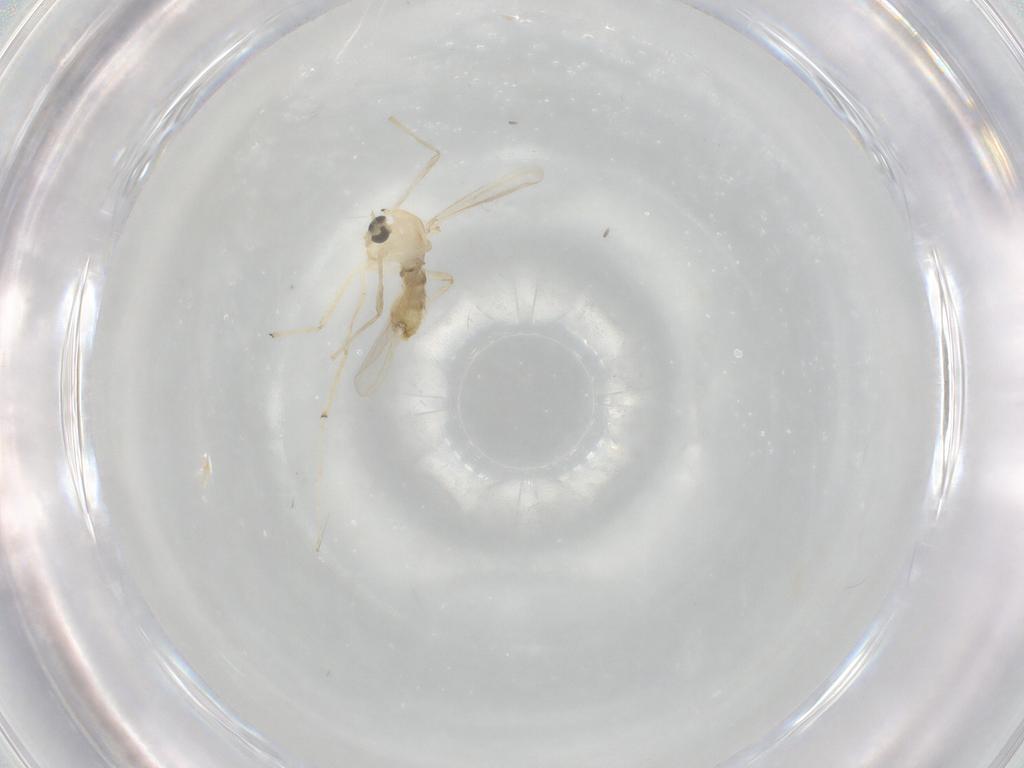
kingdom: Animalia
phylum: Arthropoda
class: Insecta
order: Diptera
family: Chironomidae
